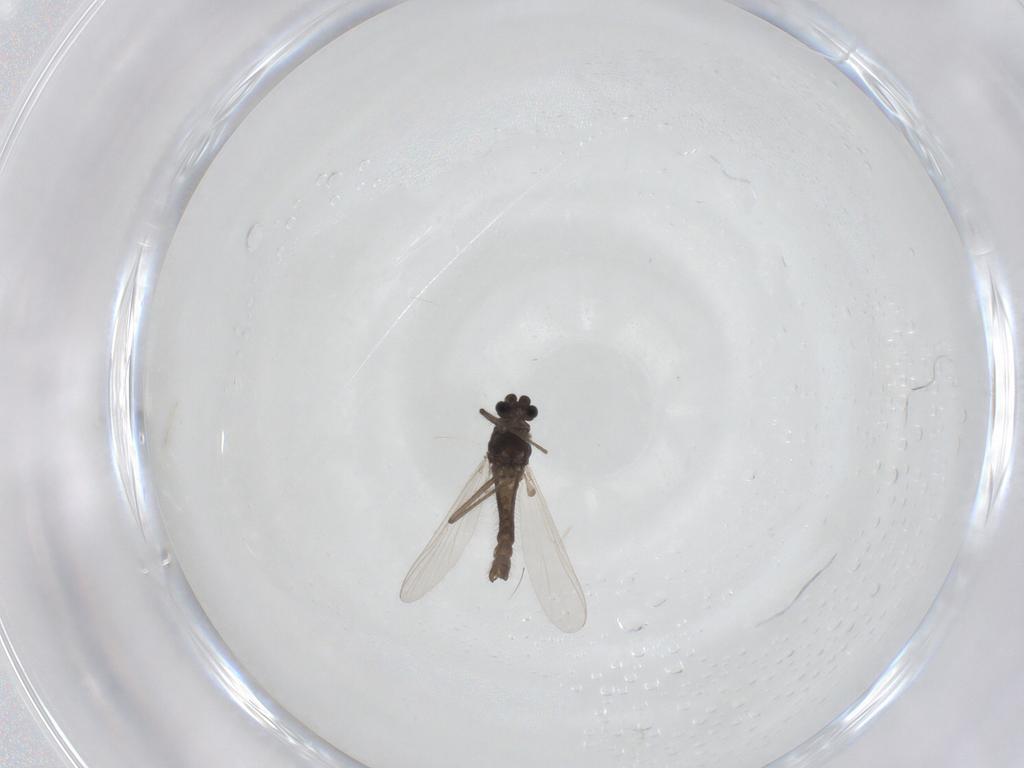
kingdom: Animalia
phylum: Arthropoda
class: Insecta
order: Diptera
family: Chironomidae
